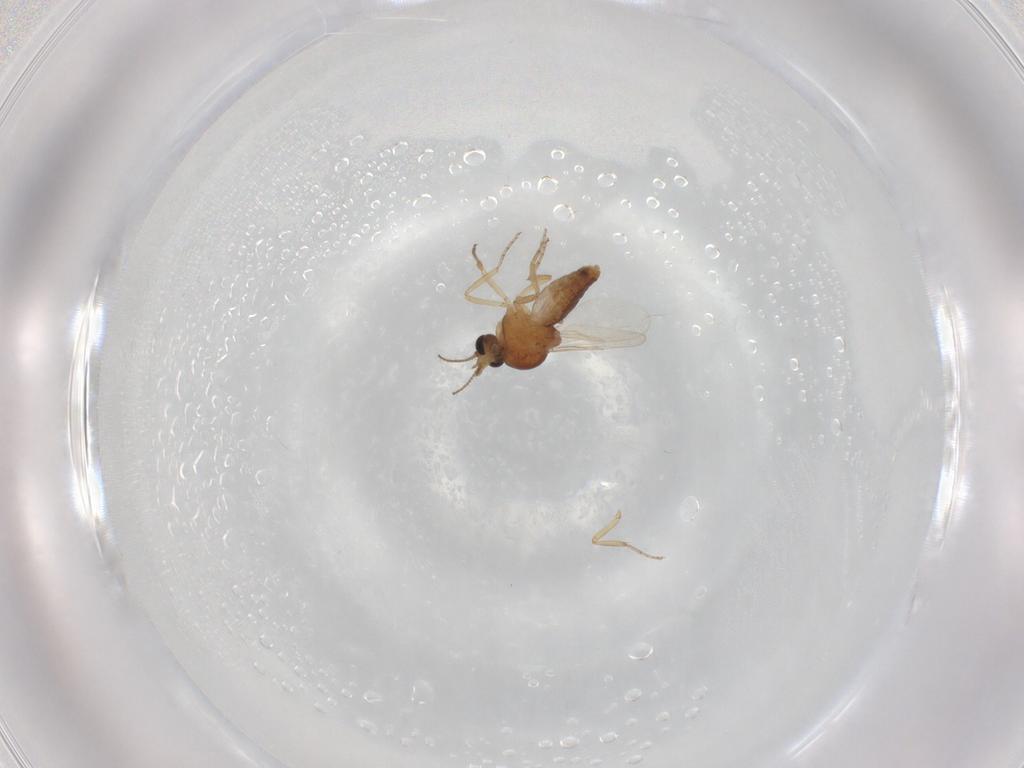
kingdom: Animalia
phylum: Arthropoda
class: Insecta
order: Diptera
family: Ceratopogonidae
